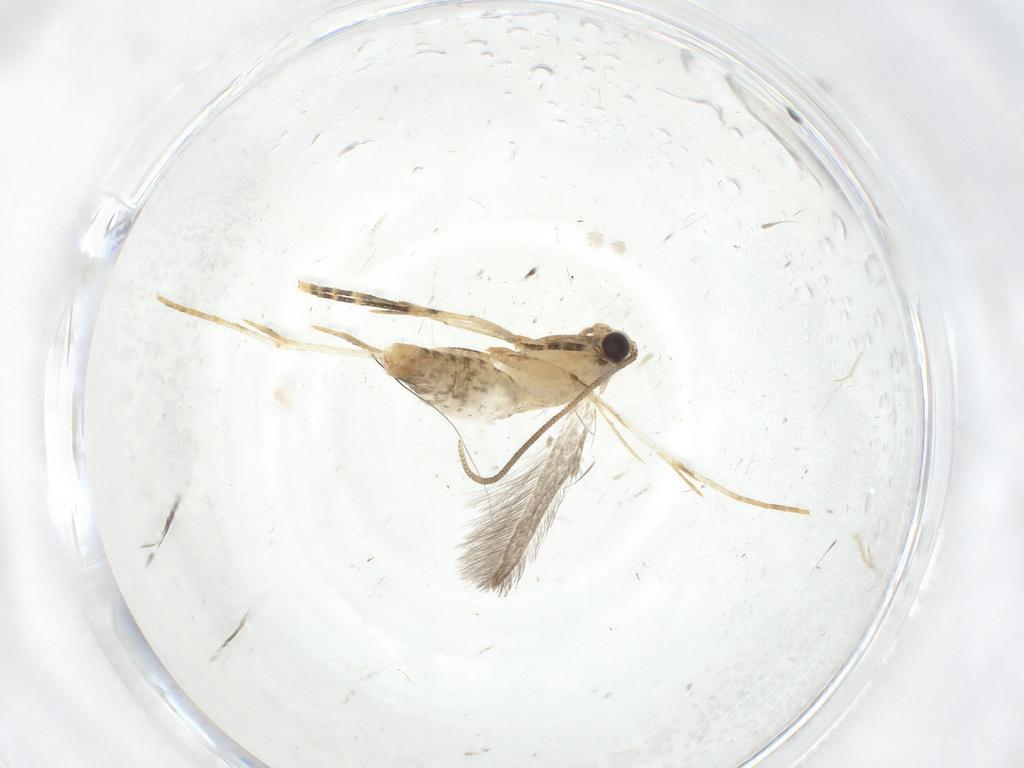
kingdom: Animalia
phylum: Arthropoda
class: Insecta
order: Lepidoptera
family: Tineidae
